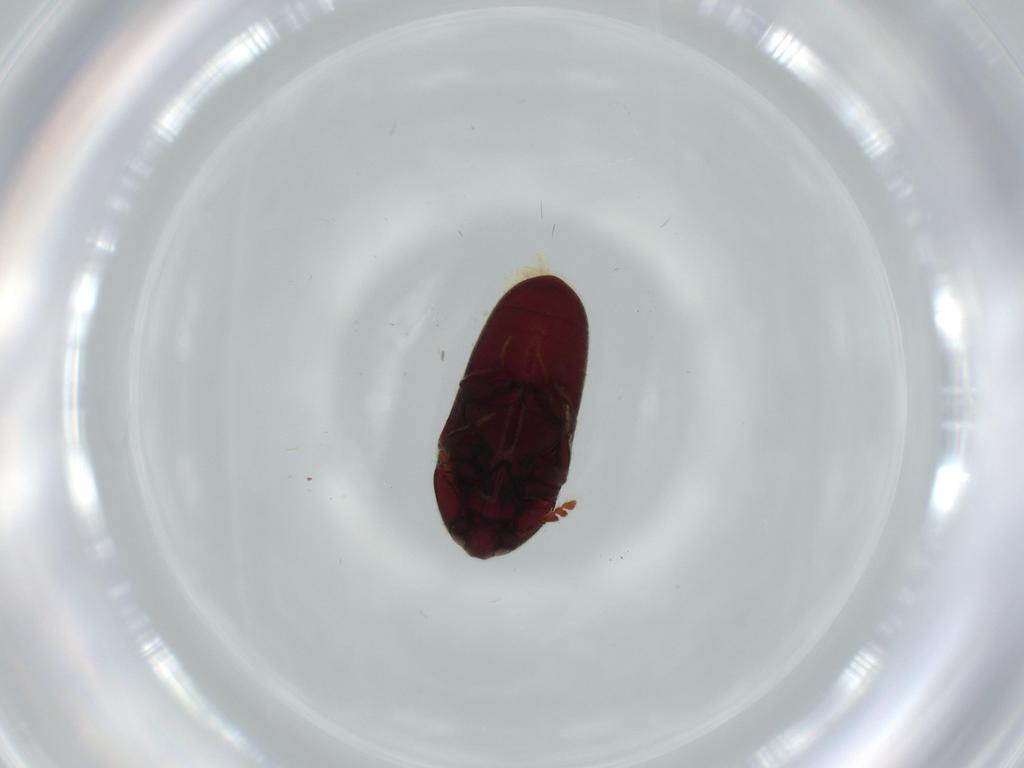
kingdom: Animalia
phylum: Arthropoda
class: Insecta
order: Coleoptera
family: Throscidae
